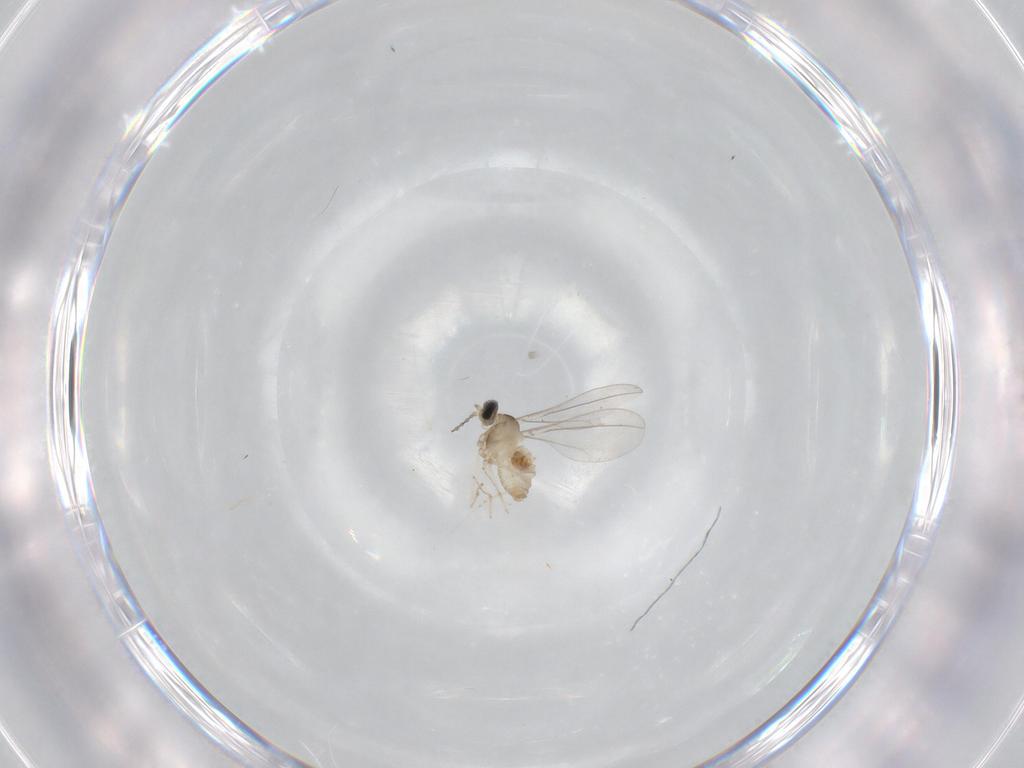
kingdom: Animalia
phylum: Arthropoda
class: Insecta
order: Diptera
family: Cecidomyiidae
